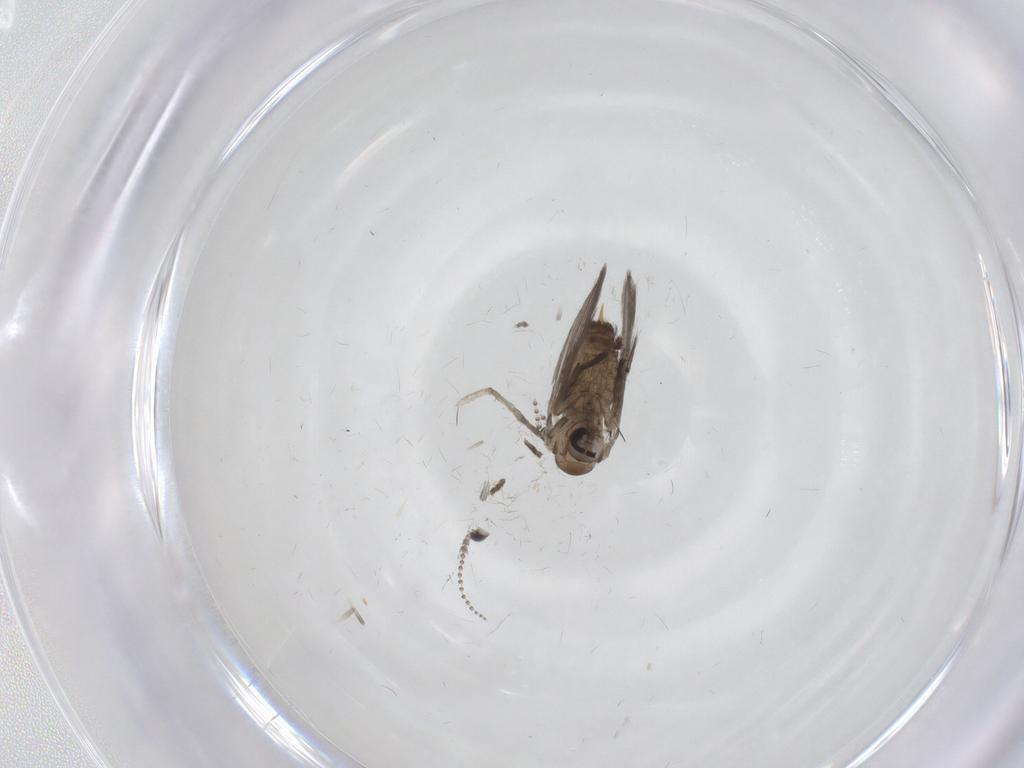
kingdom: Animalia
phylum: Arthropoda
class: Insecta
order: Diptera
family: Psychodidae
